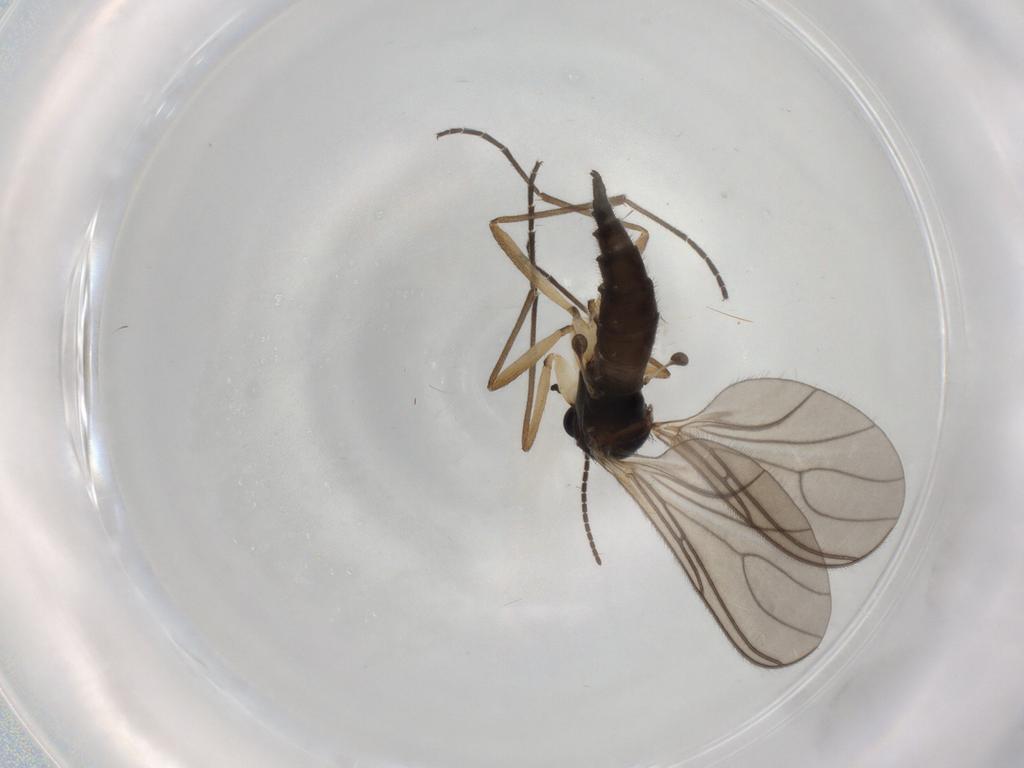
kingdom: Animalia
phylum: Arthropoda
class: Insecta
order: Diptera
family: Sciaridae
